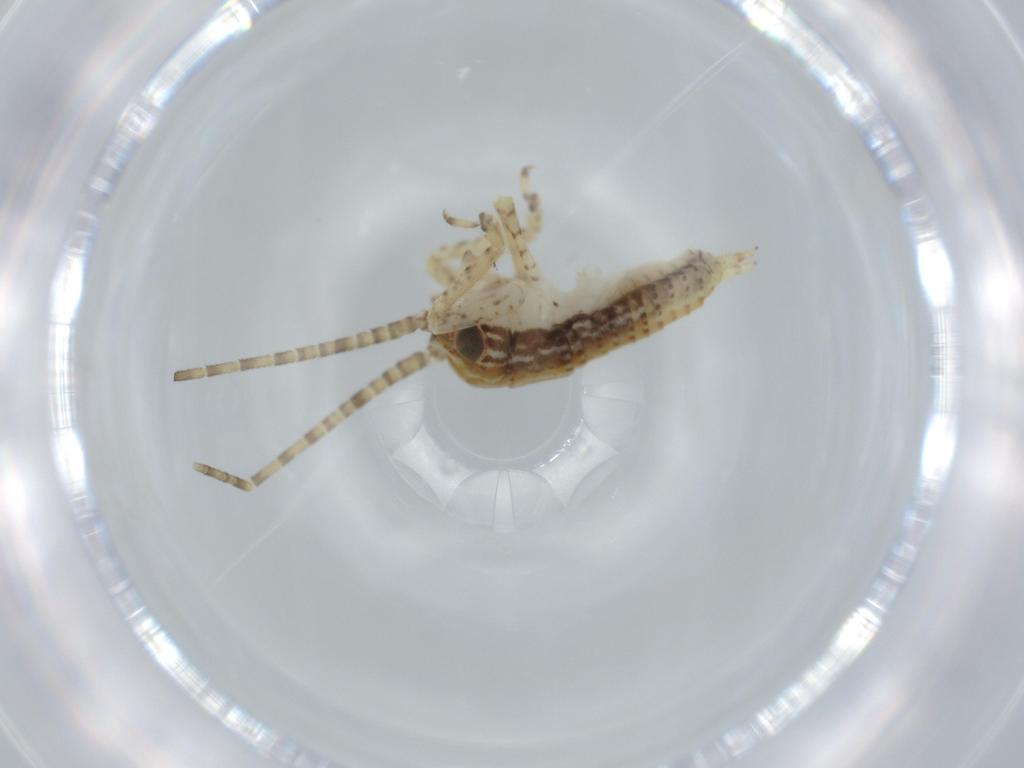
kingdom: Animalia
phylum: Arthropoda
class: Insecta
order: Orthoptera
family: Gryllidae
